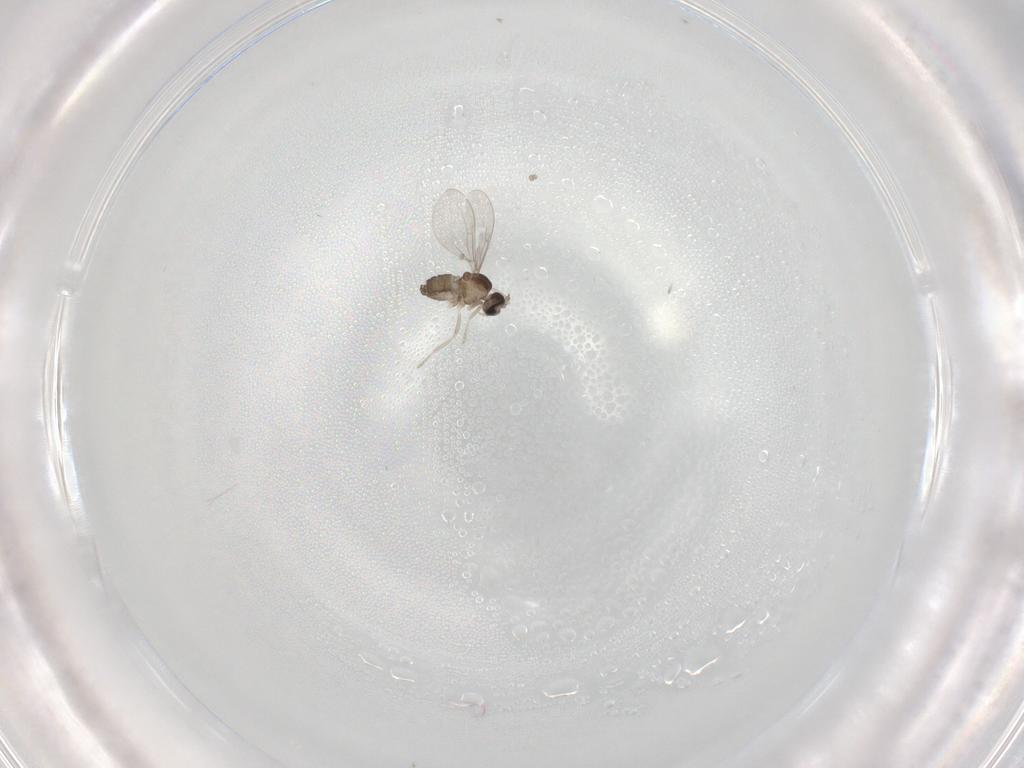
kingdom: Animalia
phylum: Arthropoda
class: Insecta
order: Diptera
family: Cecidomyiidae
